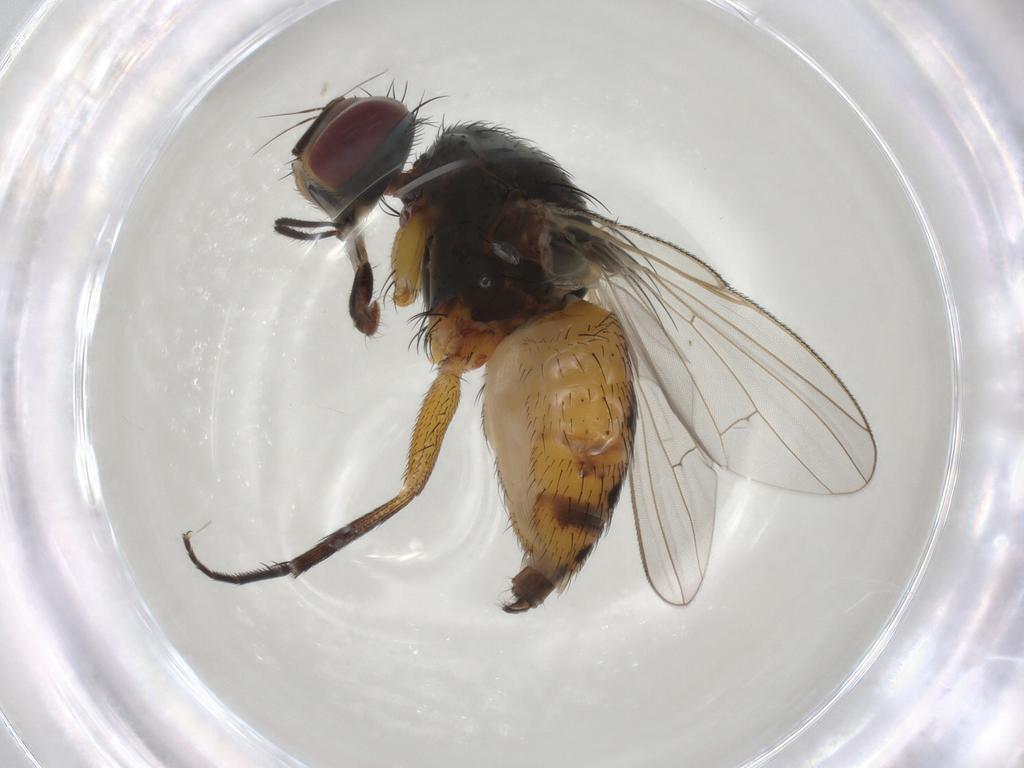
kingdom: Animalia
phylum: Arthropoda
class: Insecta
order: Diptera
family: Muscidae
